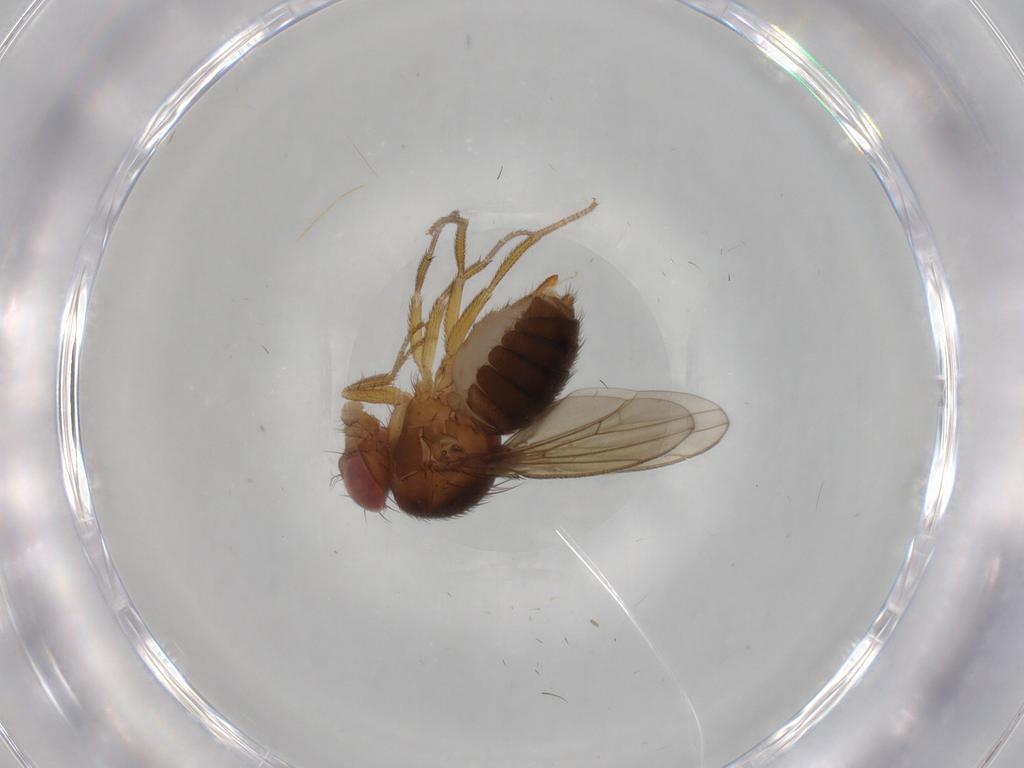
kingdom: Animalia
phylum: Arthropoda
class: Insecta
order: Diptera
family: Drosophilidae
